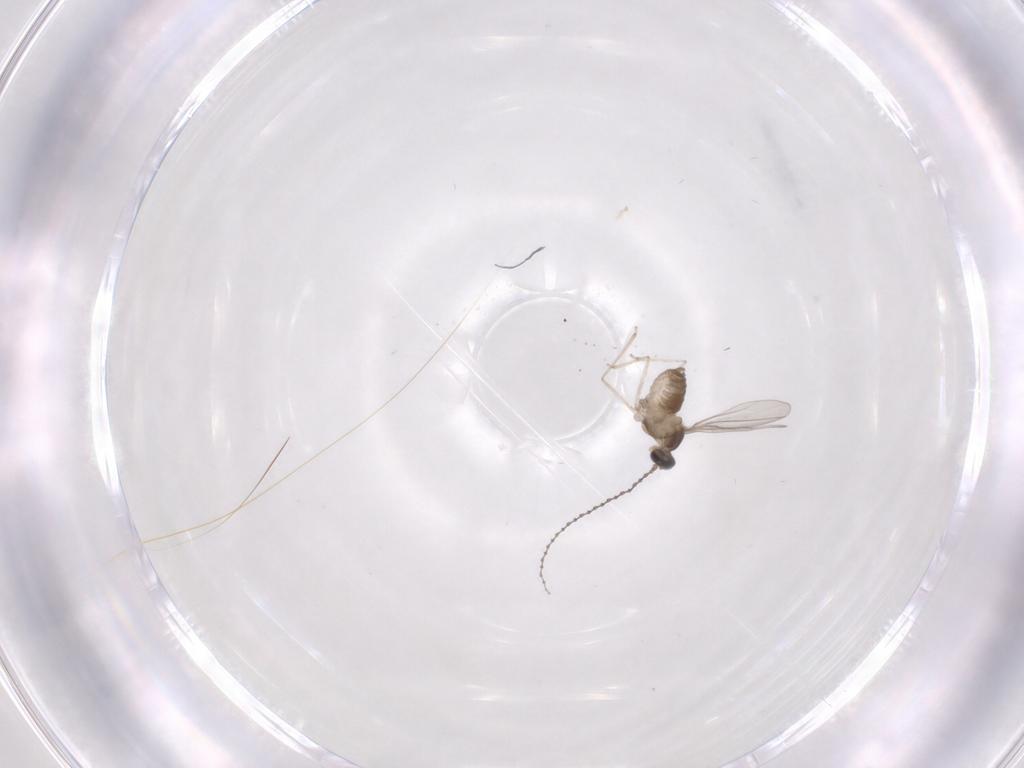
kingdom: Animalia
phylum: Arthropoda
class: Insecta
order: Diptera
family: Cecidomyiidae
